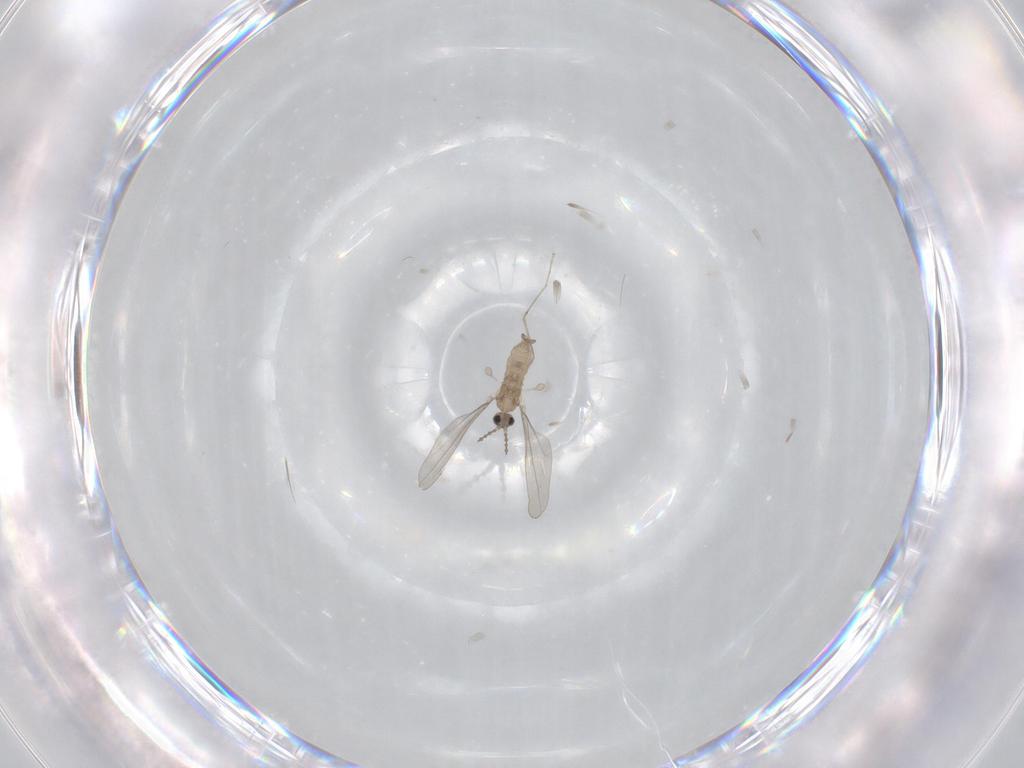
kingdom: Animalia
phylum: Arthropoda
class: Insecta
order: Diptera
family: Cecidomyiidae
